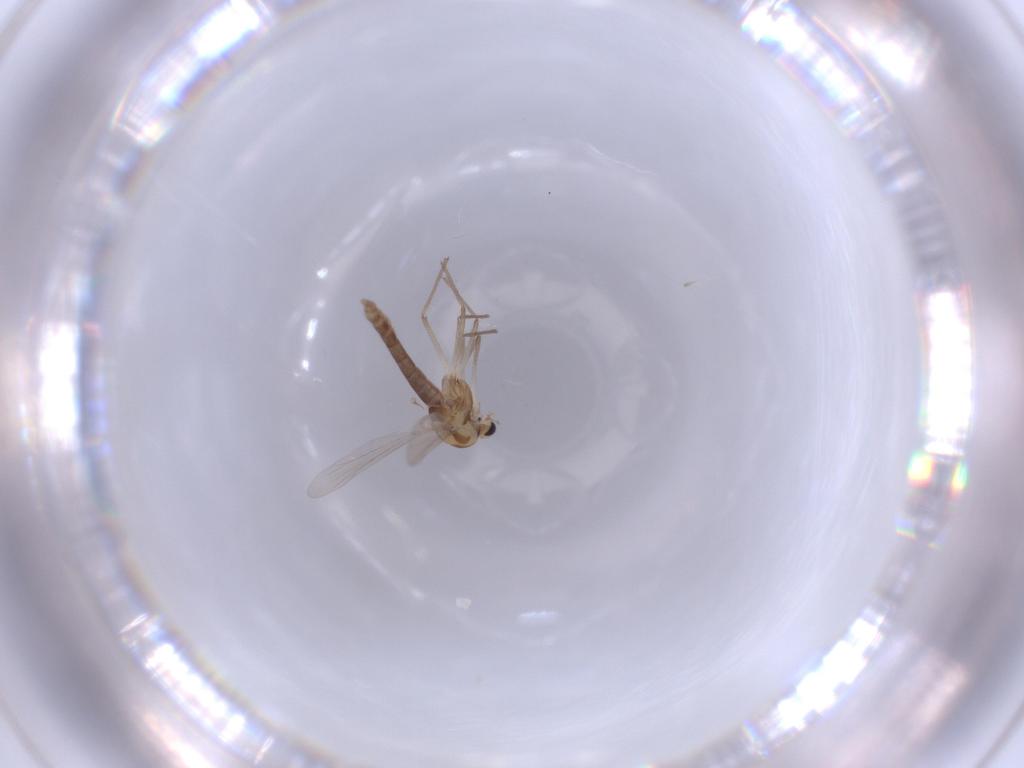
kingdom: Animalia
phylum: Arthropoda
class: Insecta
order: Diptera
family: Chironomidae
